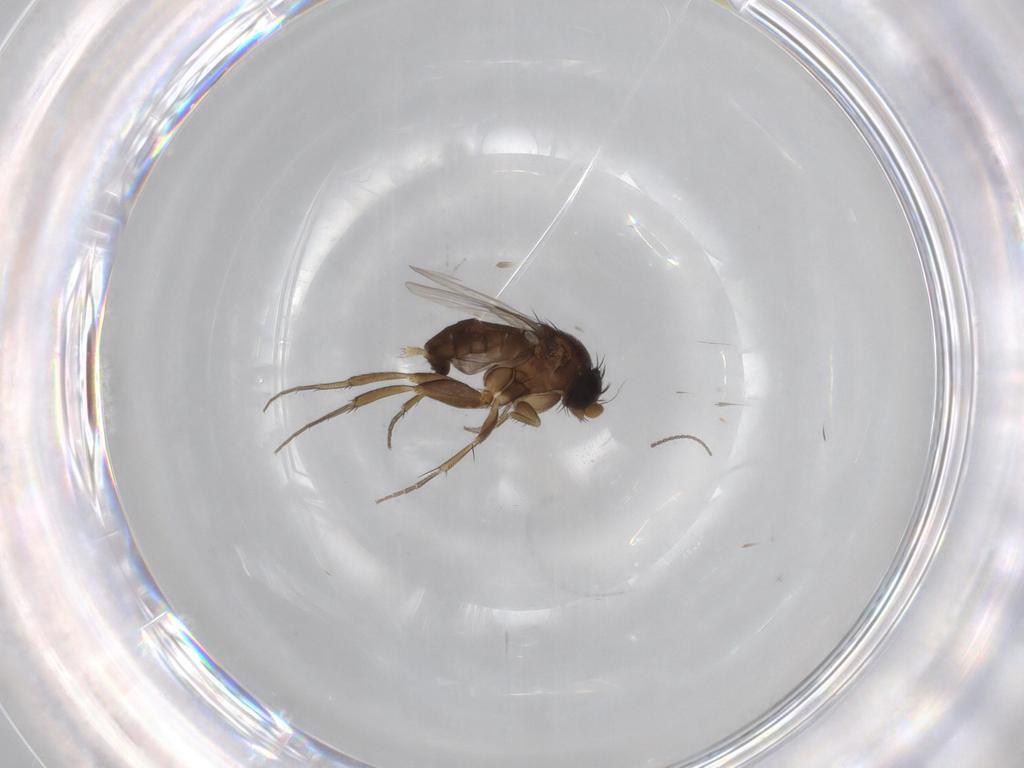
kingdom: Animalia
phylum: Arthropoda
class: Insecta
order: Diptera
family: Phoridae
